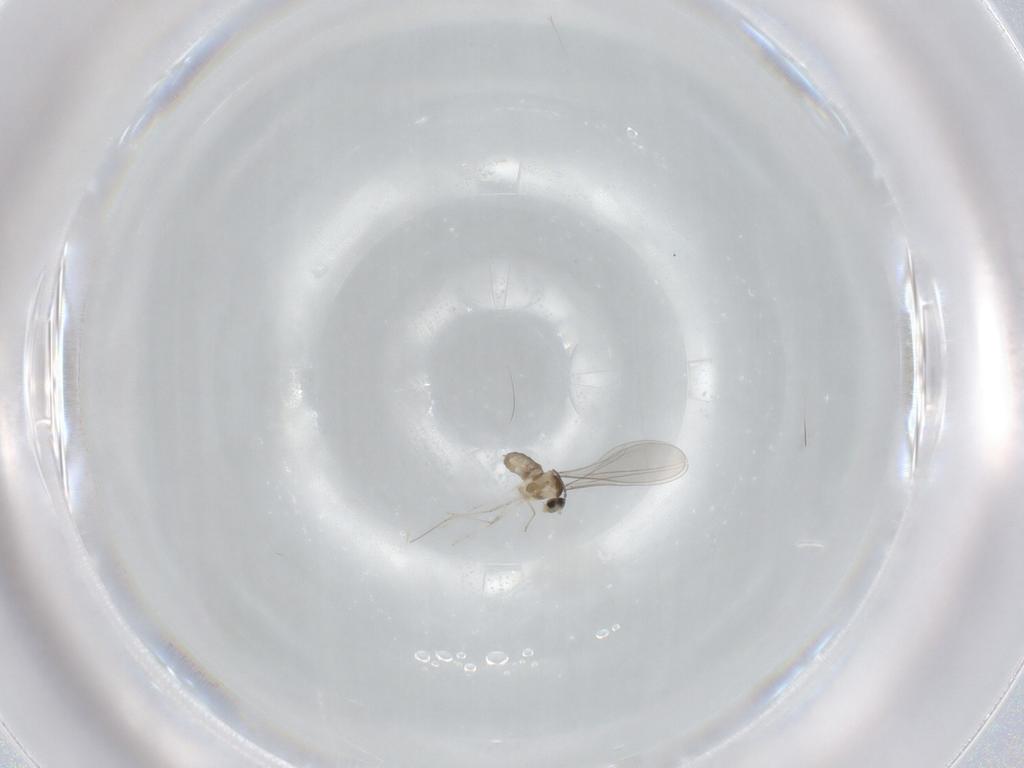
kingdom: Animalia
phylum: Arthropoda
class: Insecta
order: Diptera
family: Cecidomyiidae
